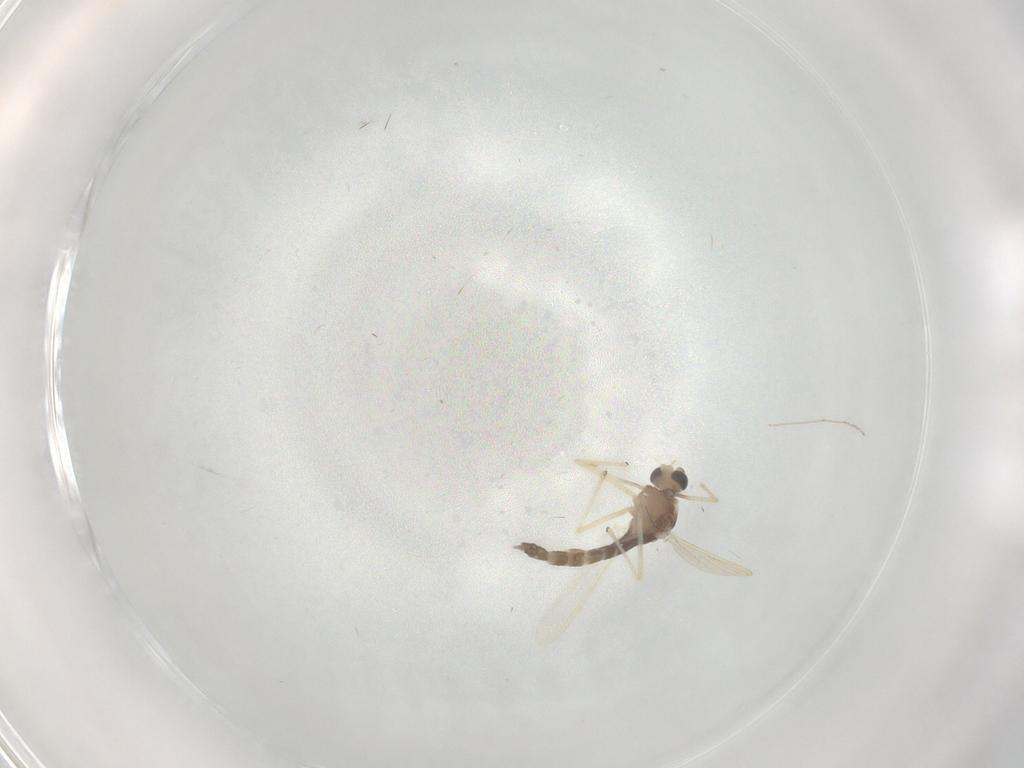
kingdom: Animalia
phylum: Arthropoda
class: Insecta
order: Diptera
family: Chironomidae
